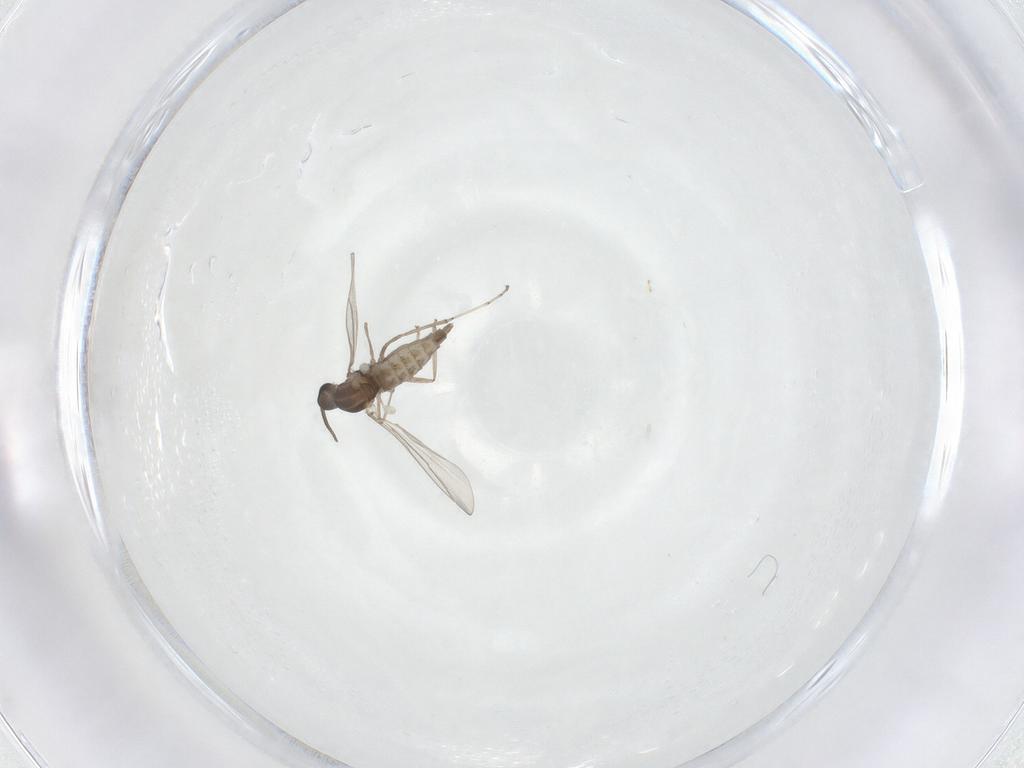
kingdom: Animalia
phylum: Arthropoda
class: Insecta
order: Diptera
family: Cecidomyiidae
